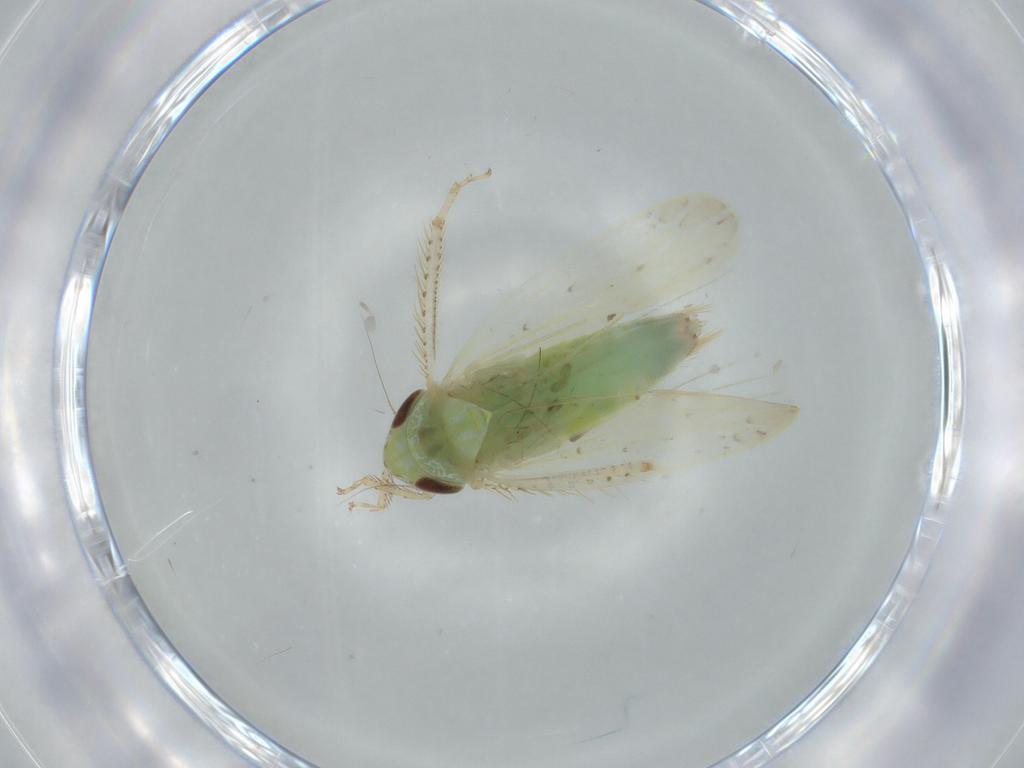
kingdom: Animalia
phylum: Arthropoda
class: Insecta
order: Hemiptera
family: Cicadellidae
